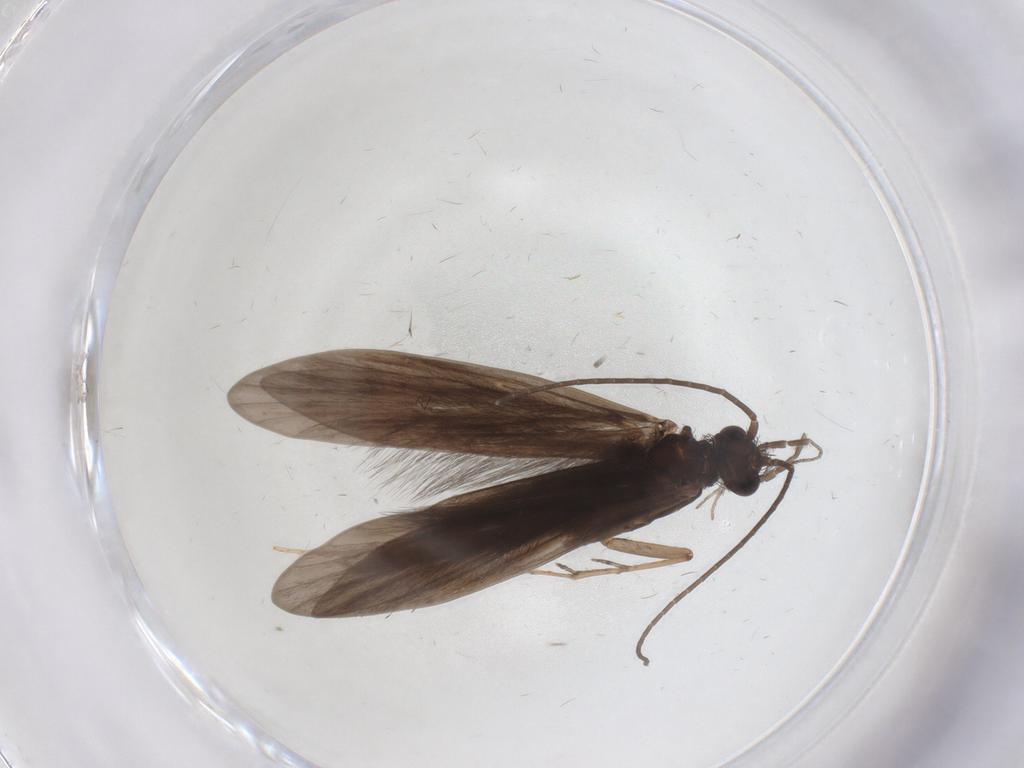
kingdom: Animalia
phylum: Arthropoda
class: Insecta
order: Trichoptera
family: Xiphocentronidae
